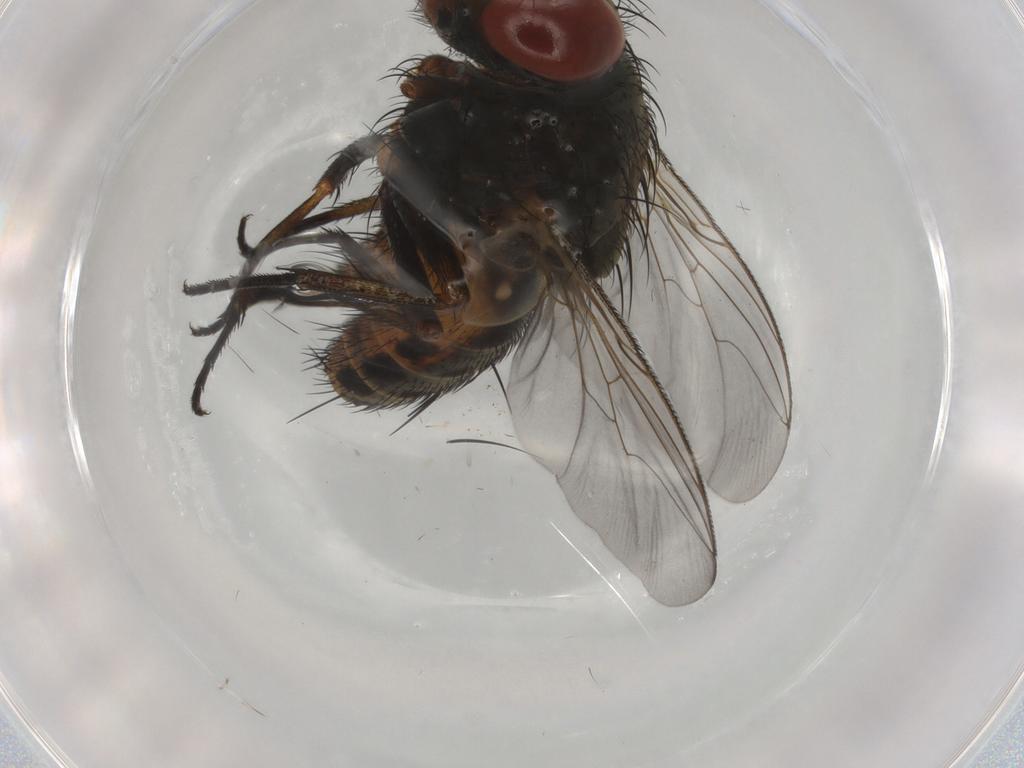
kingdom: Animalia
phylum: Arthropoda
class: Insecta
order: Diptera
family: Sarcophagidae
